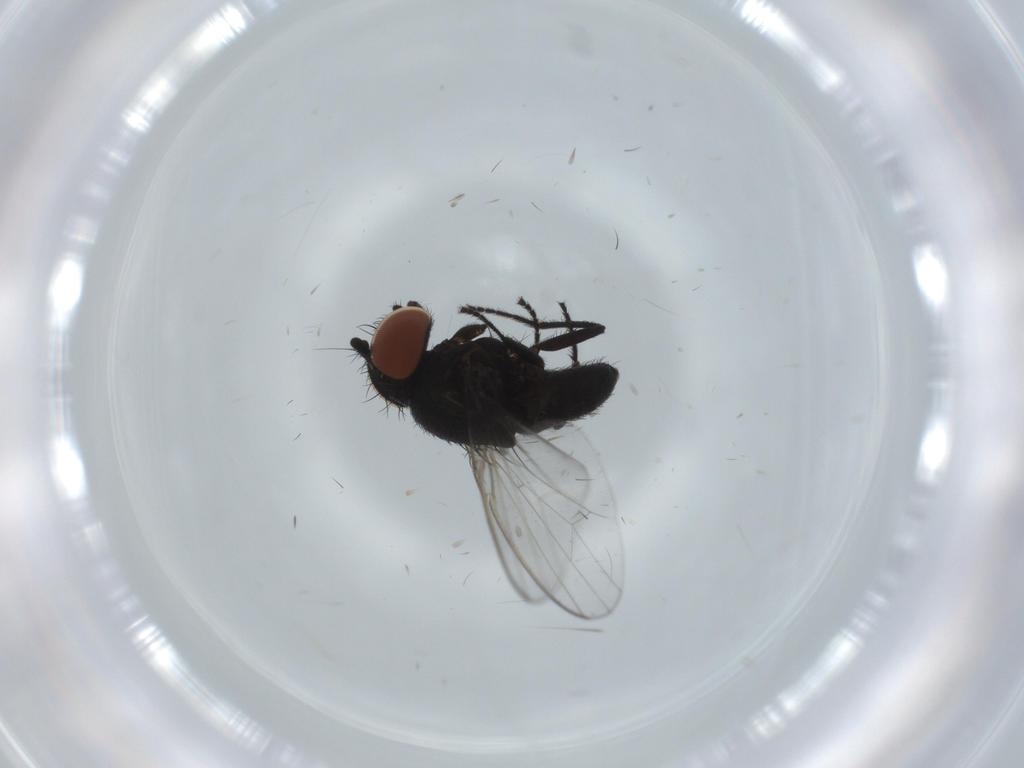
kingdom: Animalia
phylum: Arthropoda
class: Insecta
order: Diptera
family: Milichiidae
